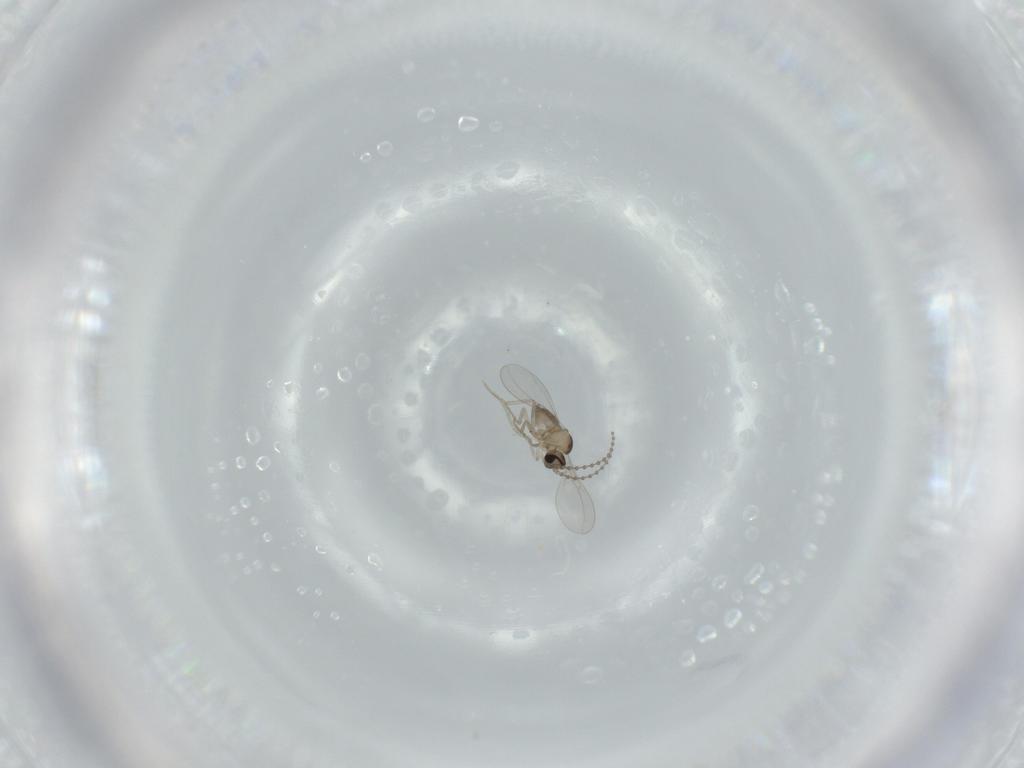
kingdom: Animalia
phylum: Arthropoda
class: Insecta
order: Diptera
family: Cecidomyiidae
